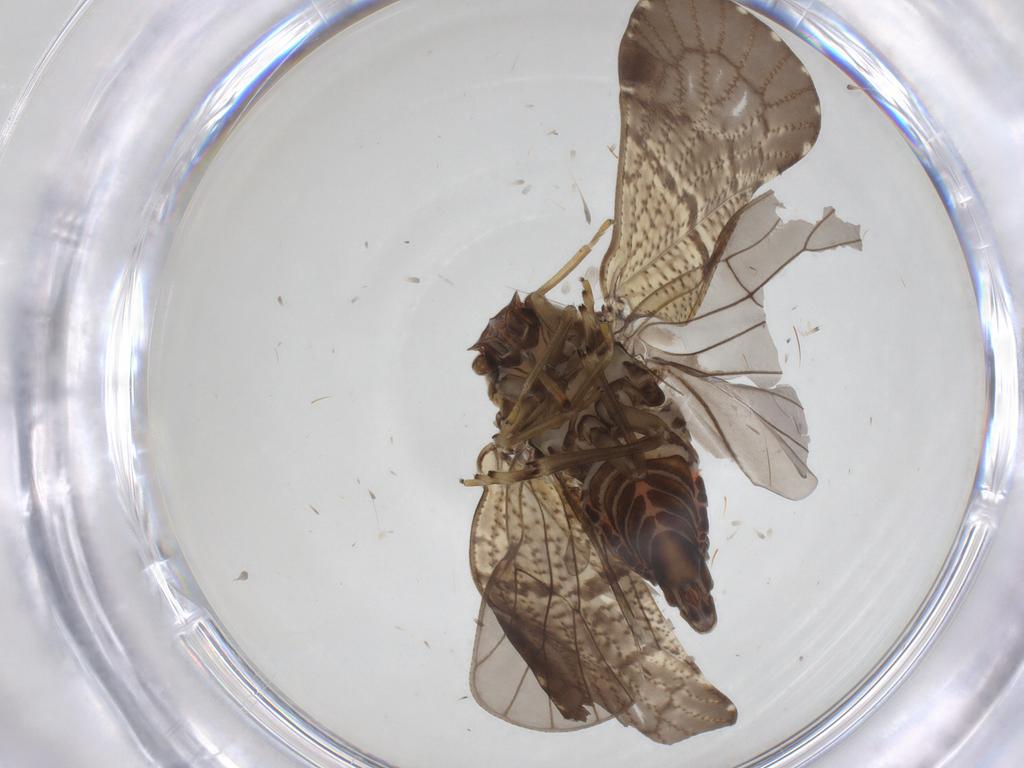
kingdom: Animalia
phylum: Arthropoda
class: Insecta
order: Hemiptera
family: Cixiidae
